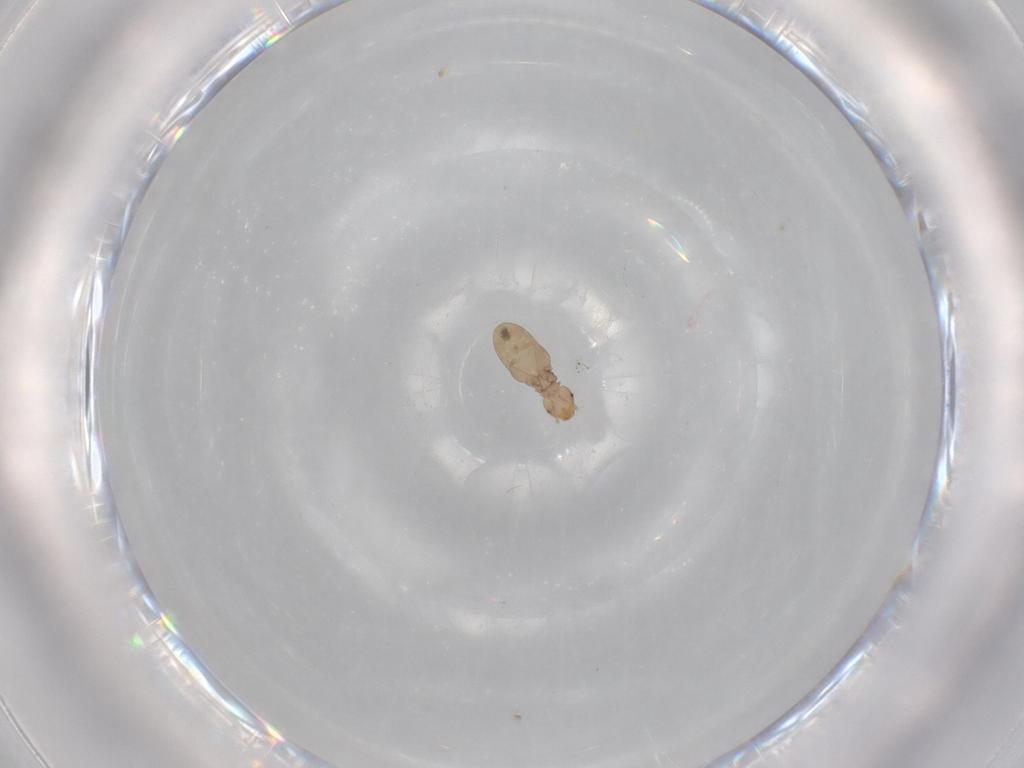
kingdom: Animalia
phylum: Arthropoda
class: Insecta
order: Psocodea
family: Liposcelididae
